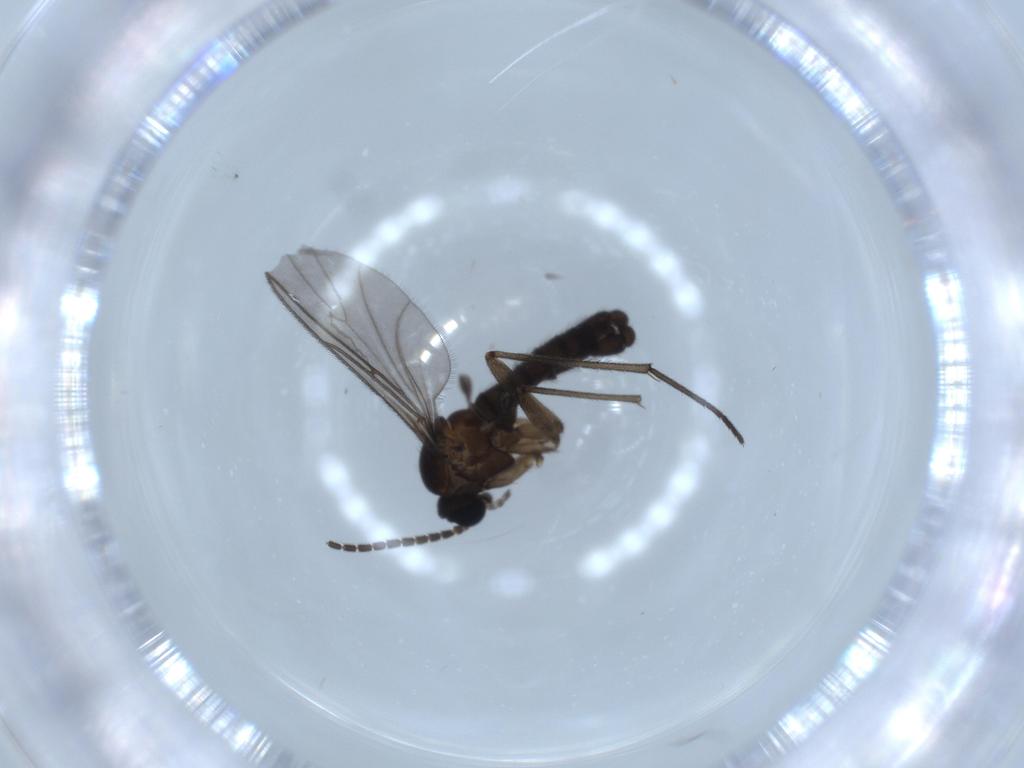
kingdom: Animalia
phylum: Arthropoda
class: Insecta
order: Diptera
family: Sciaridae
